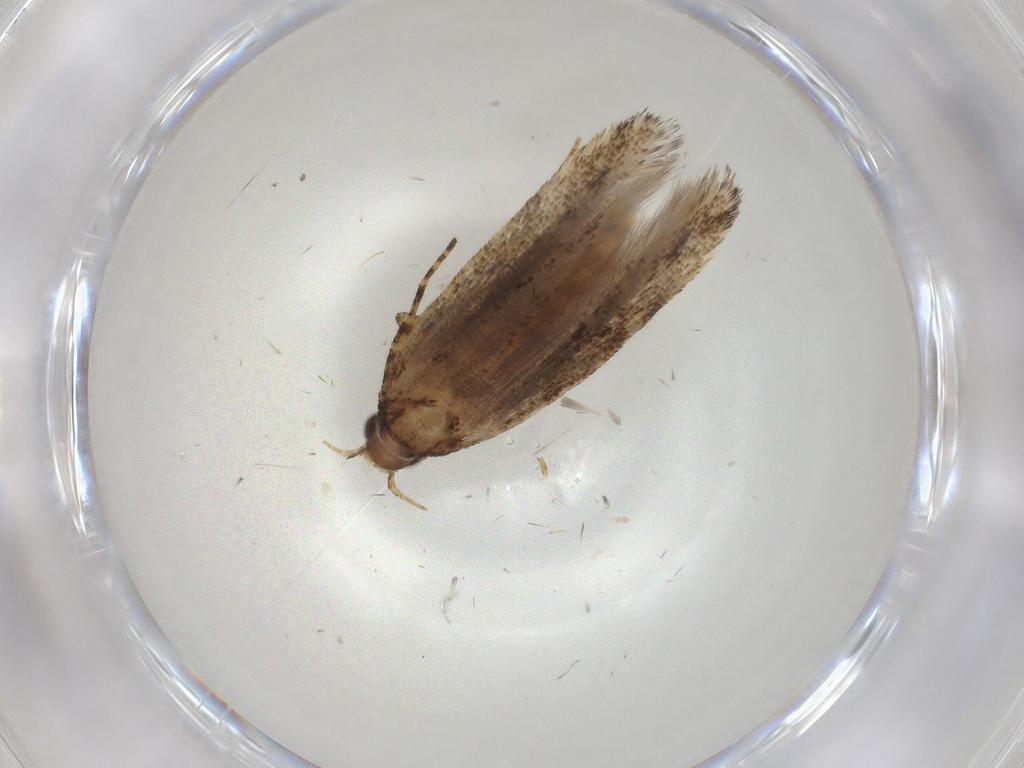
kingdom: Animalia
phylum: Arthropoda
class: Insecta
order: Lepidoptera
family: Gelechiidae
